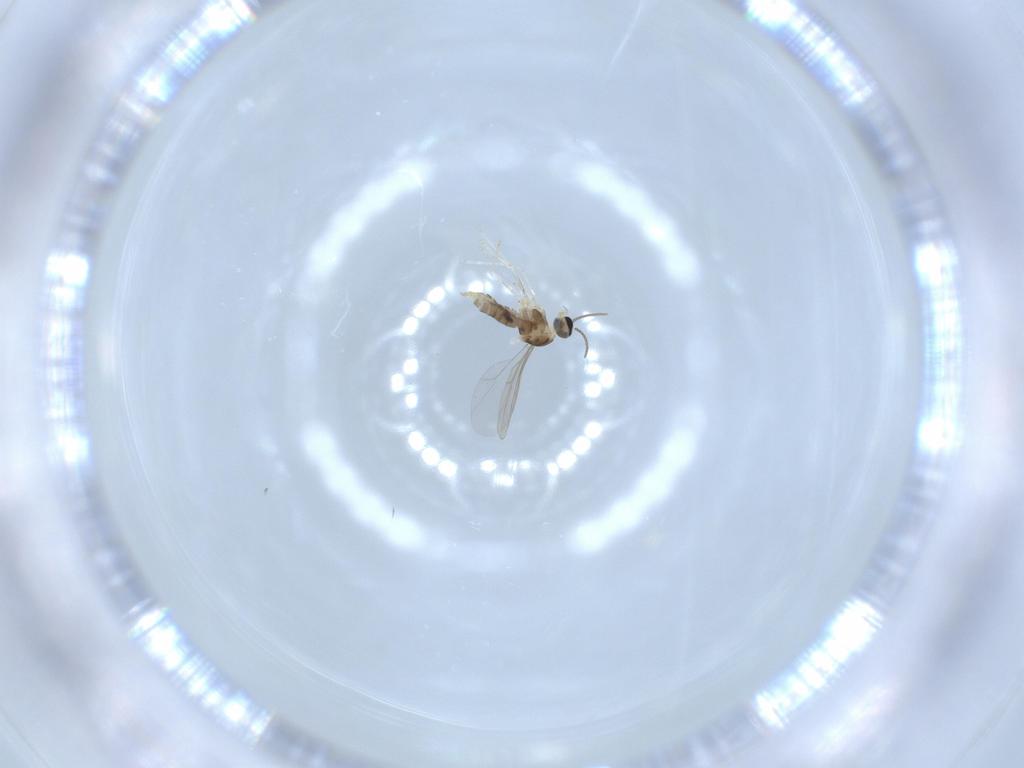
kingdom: Animalia
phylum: Arthropoda
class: Insecta
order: Diptera
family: Cecidomyiidae
